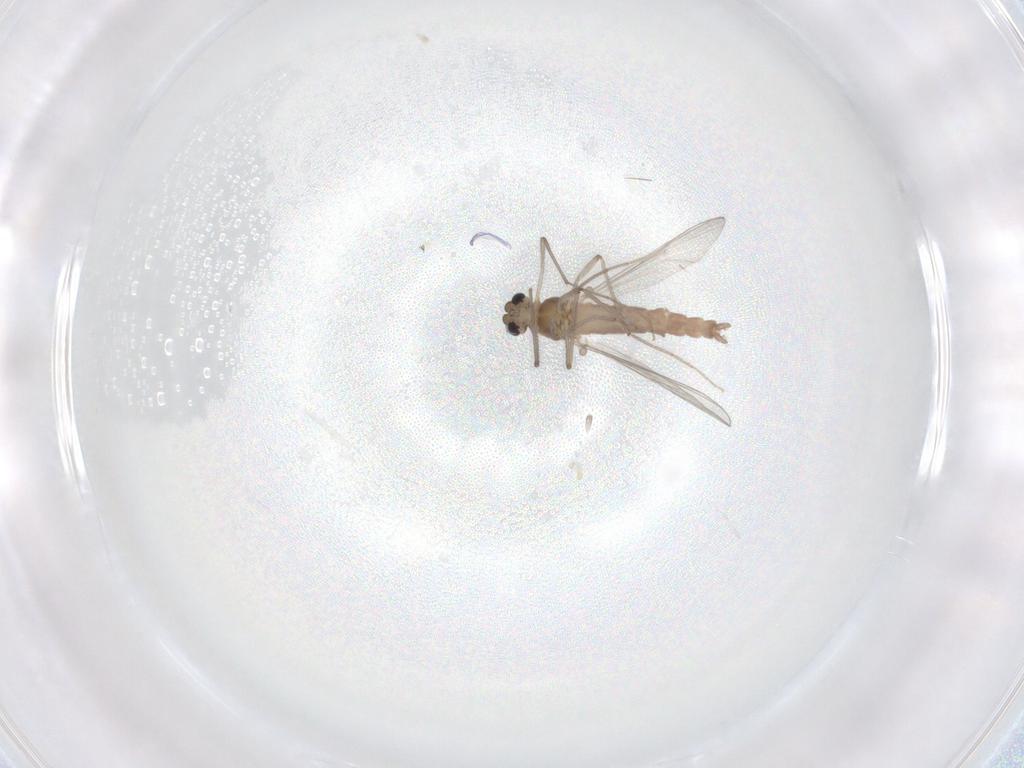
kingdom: Animalia
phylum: Arthropoda
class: Insecta
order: Diptera
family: Chironomidae
